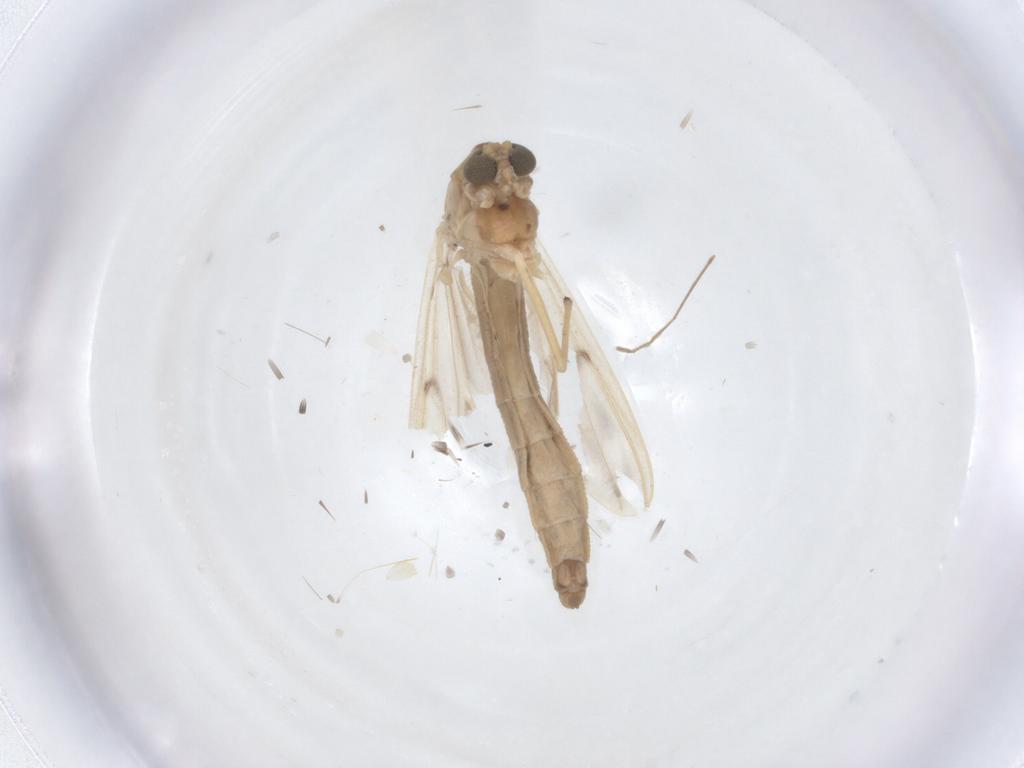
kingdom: Animalia
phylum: Arthropoda
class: Insecta
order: Diptera
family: Chironomidae
